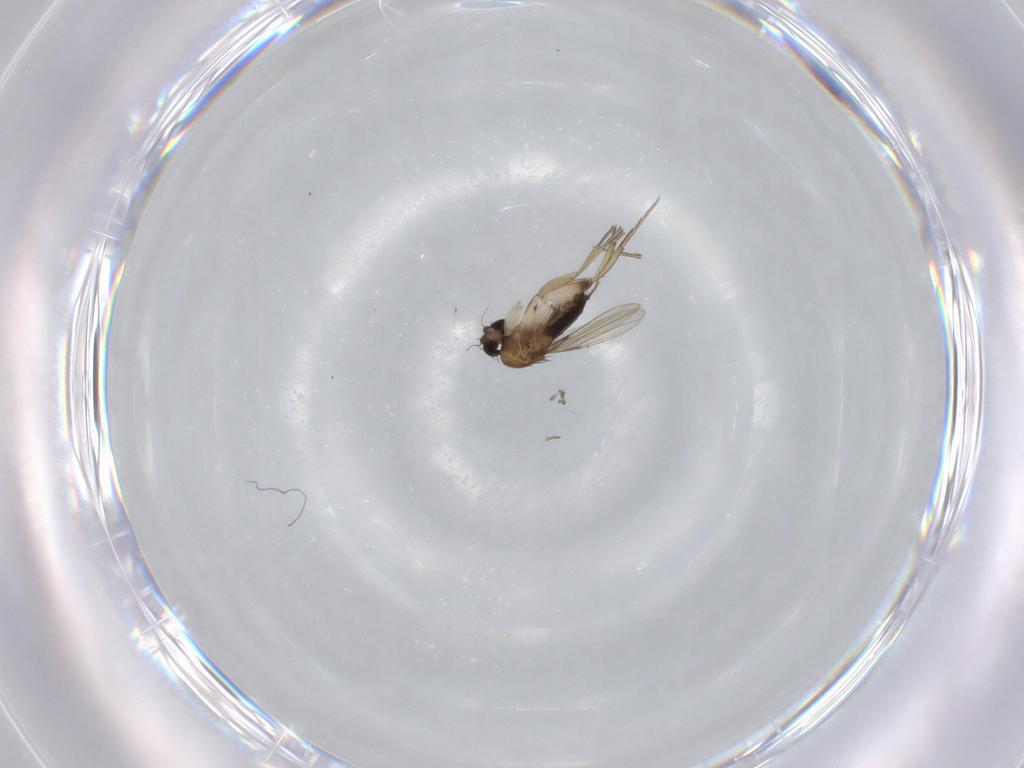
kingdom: Animalia
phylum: Arthropoda
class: Insecta
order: Diptera
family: Phoridae
